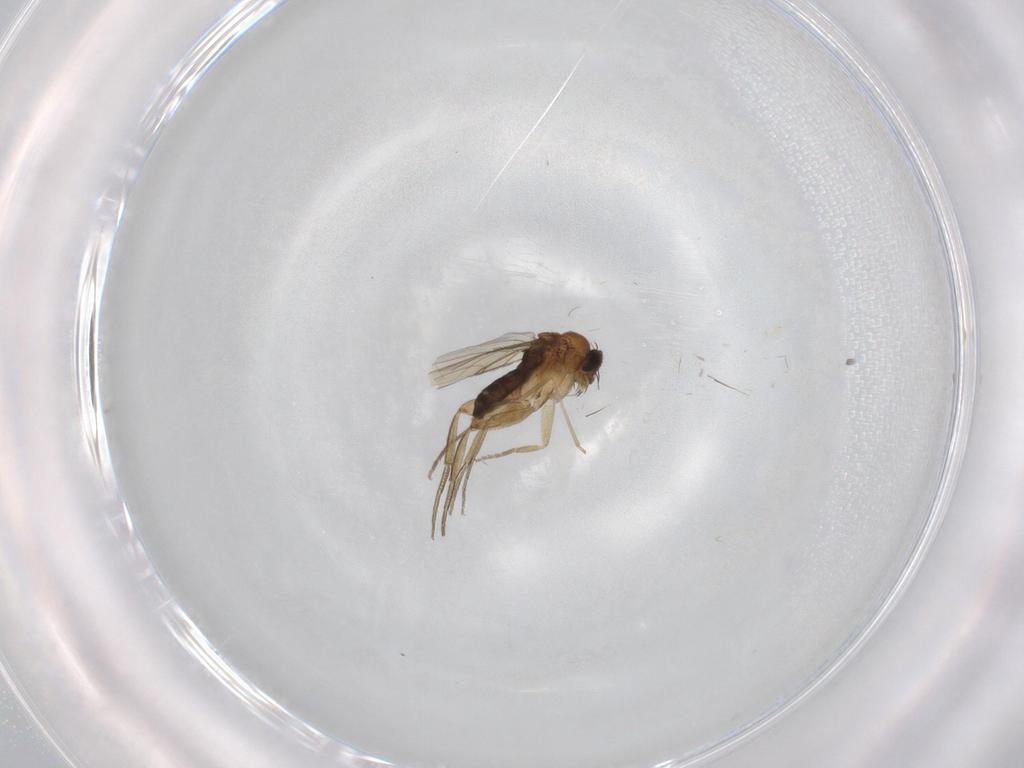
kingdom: Animalia
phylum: Arthropoda
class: Insecta
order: Diptera
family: Phoridae
